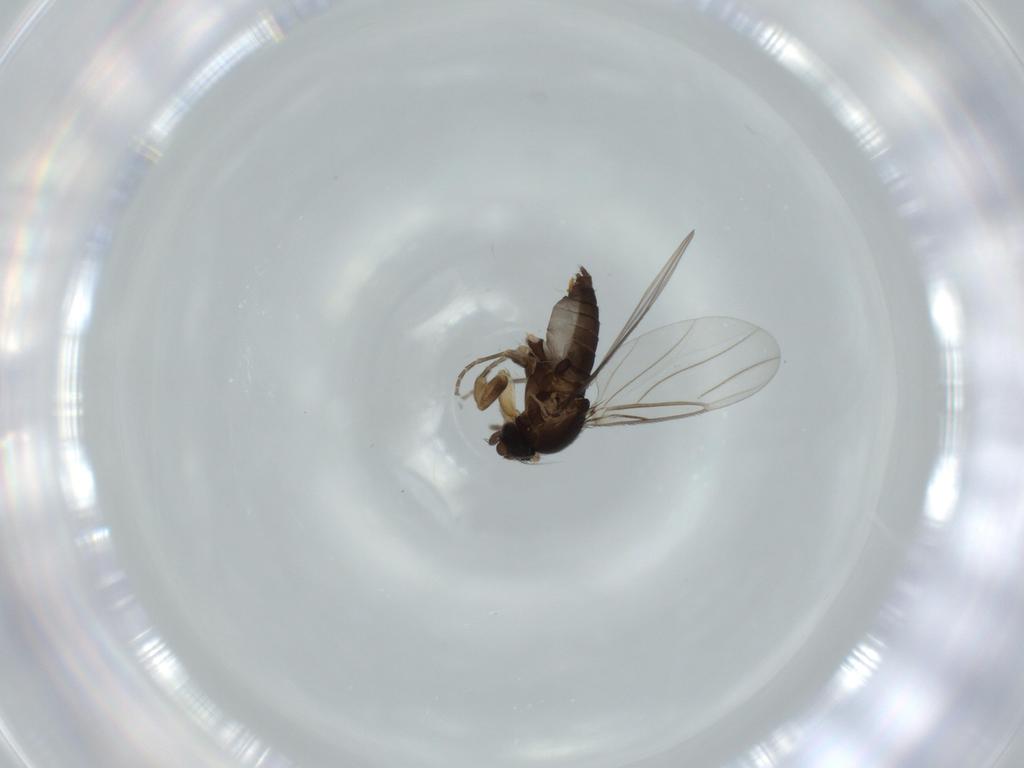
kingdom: Animalia
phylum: Arthropoda
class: Insecta
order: Diptera
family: Phoridae
